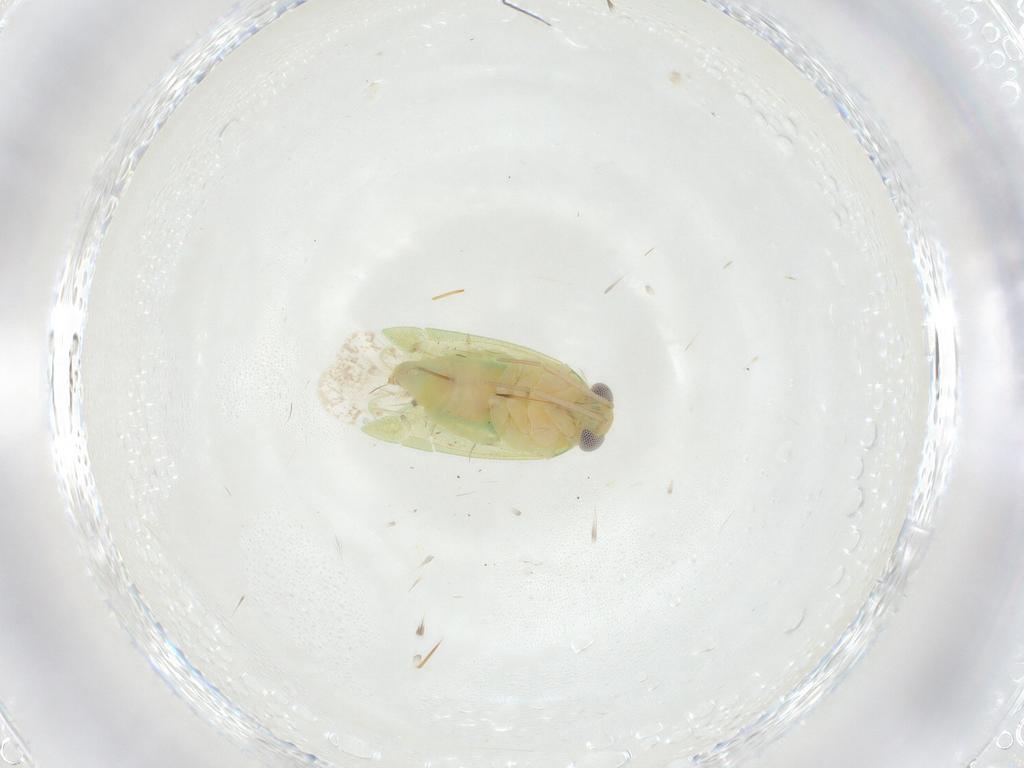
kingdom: Animalia
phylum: Arthropoda
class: Insecta
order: Hemiptera
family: Miridae
